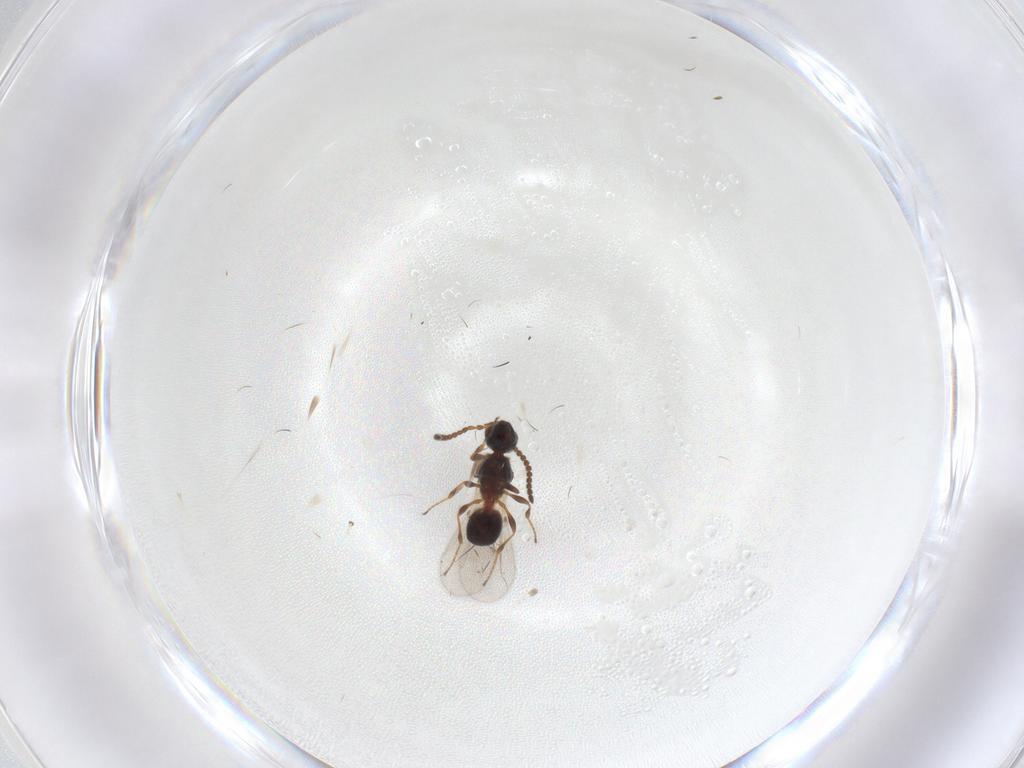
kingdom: Animalia
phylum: Arthropoda
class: Insecta
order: Hymenoptera
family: Diapriidae
